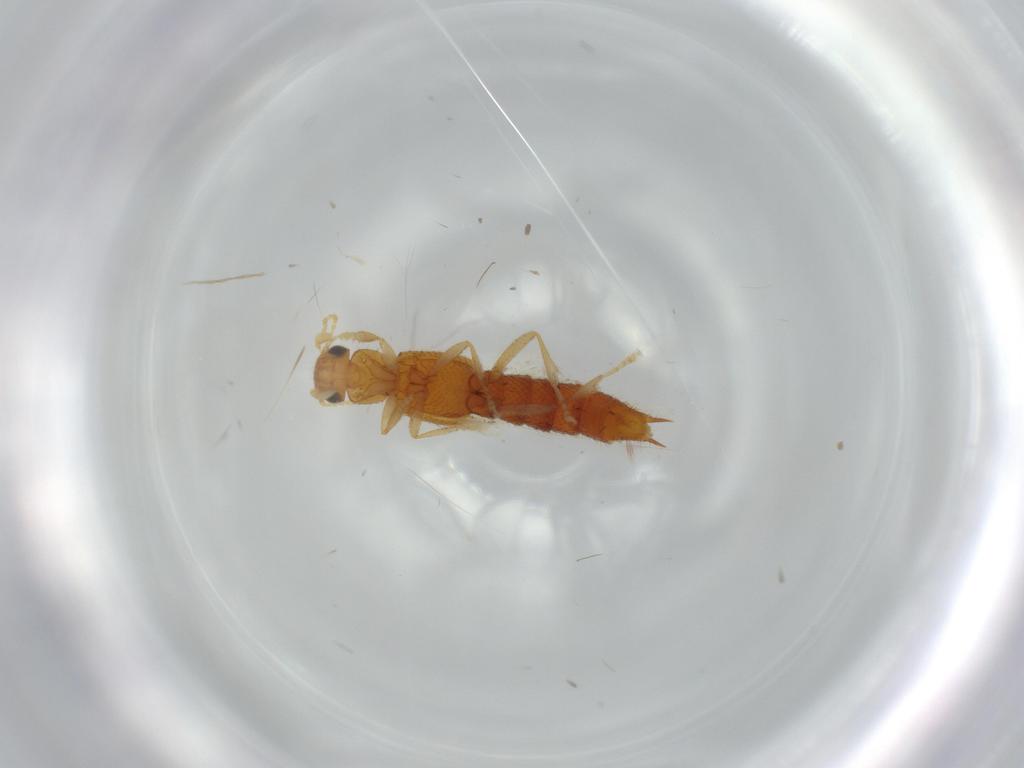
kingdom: Animalia
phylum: Arthropoda
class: Insecta
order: Coleoptera
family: Staphylinidae
